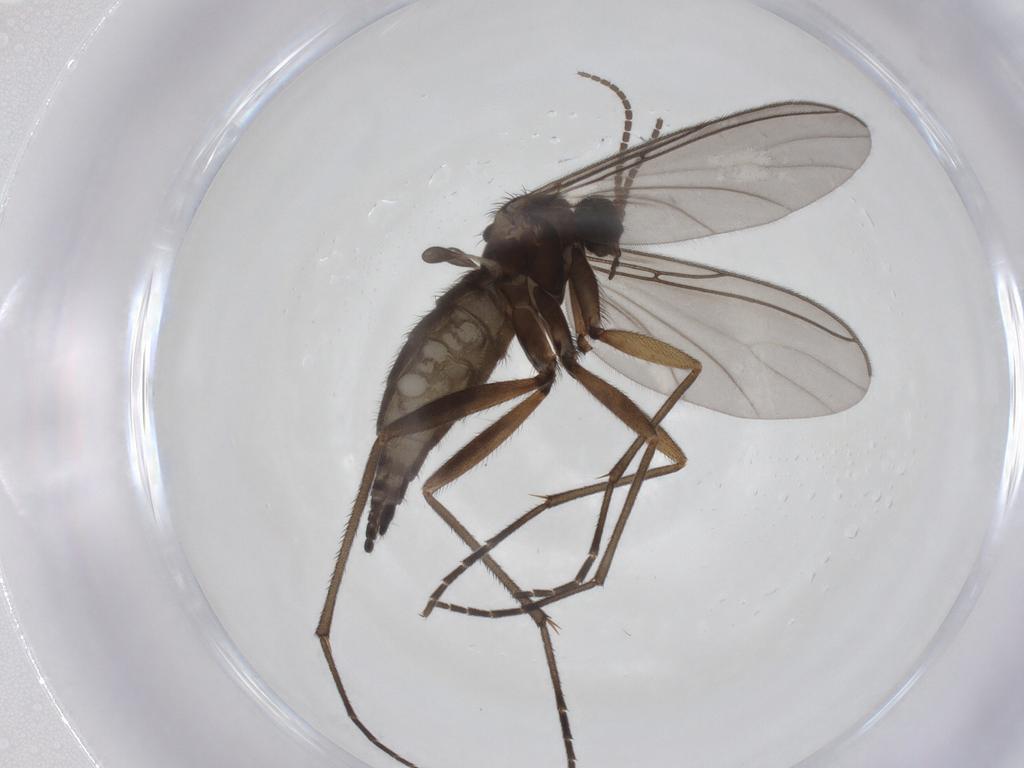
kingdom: Animalia
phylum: Arthropoda
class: Insecta
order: Diptera
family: Sciaridae
